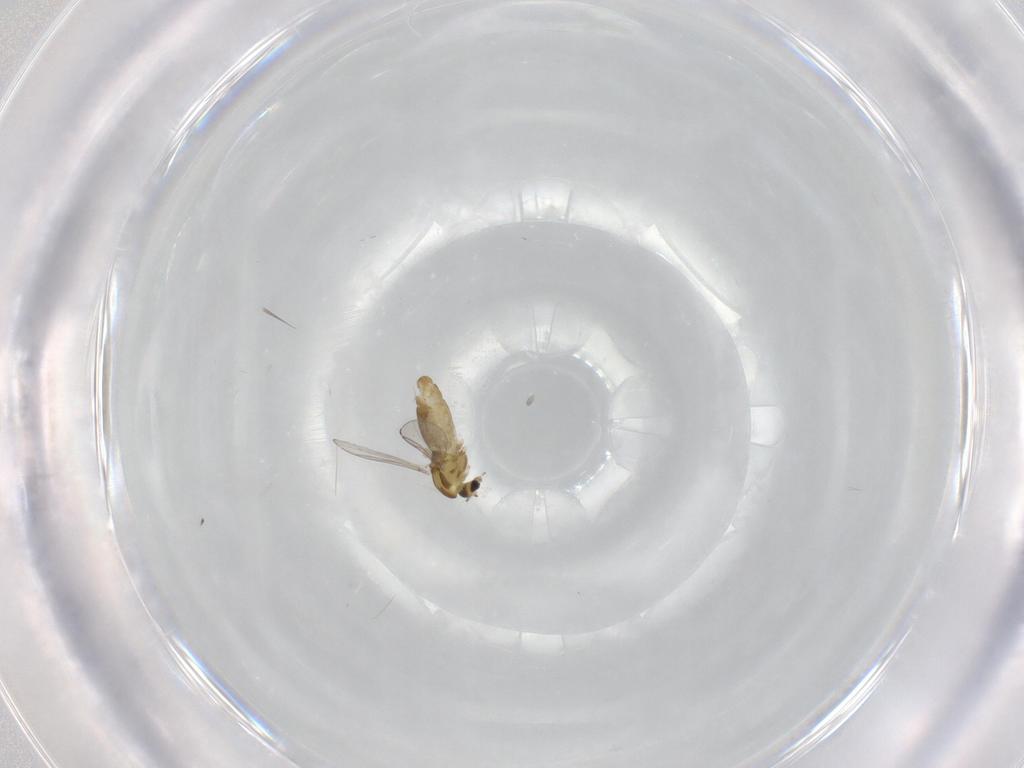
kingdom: Animalia
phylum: Arthropoda
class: Insecta
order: Diptera
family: Chironomidae
